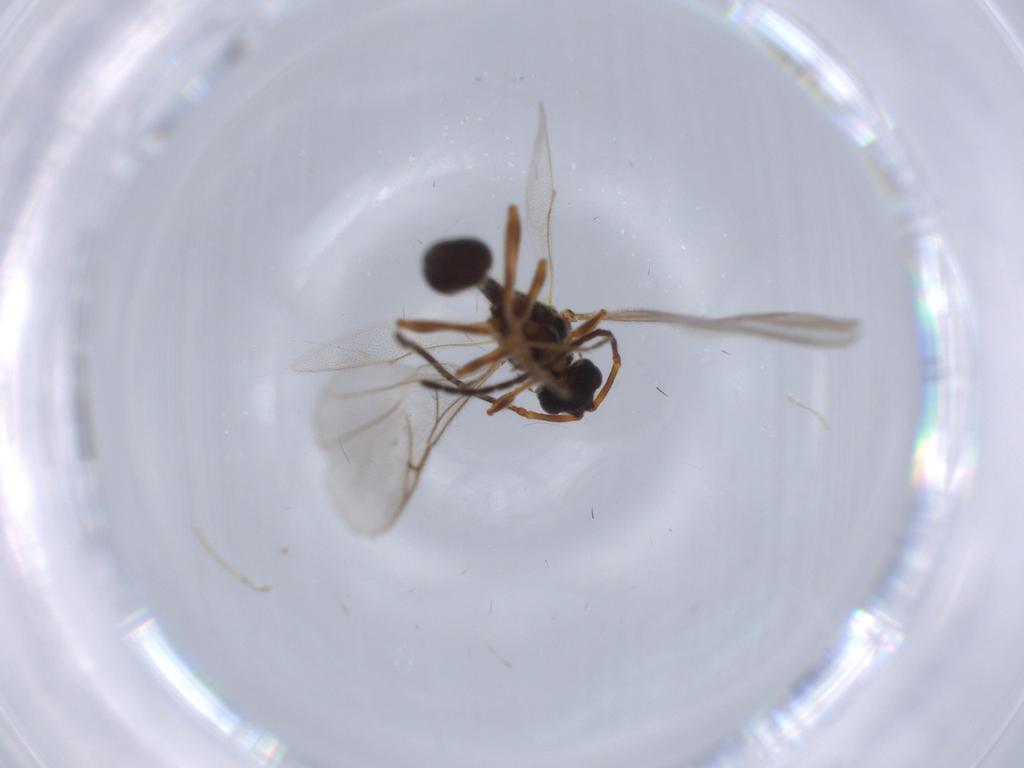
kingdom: Animalia
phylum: Arthropoda
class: Insecta
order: Hymenoptera
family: Ichneumonidae
